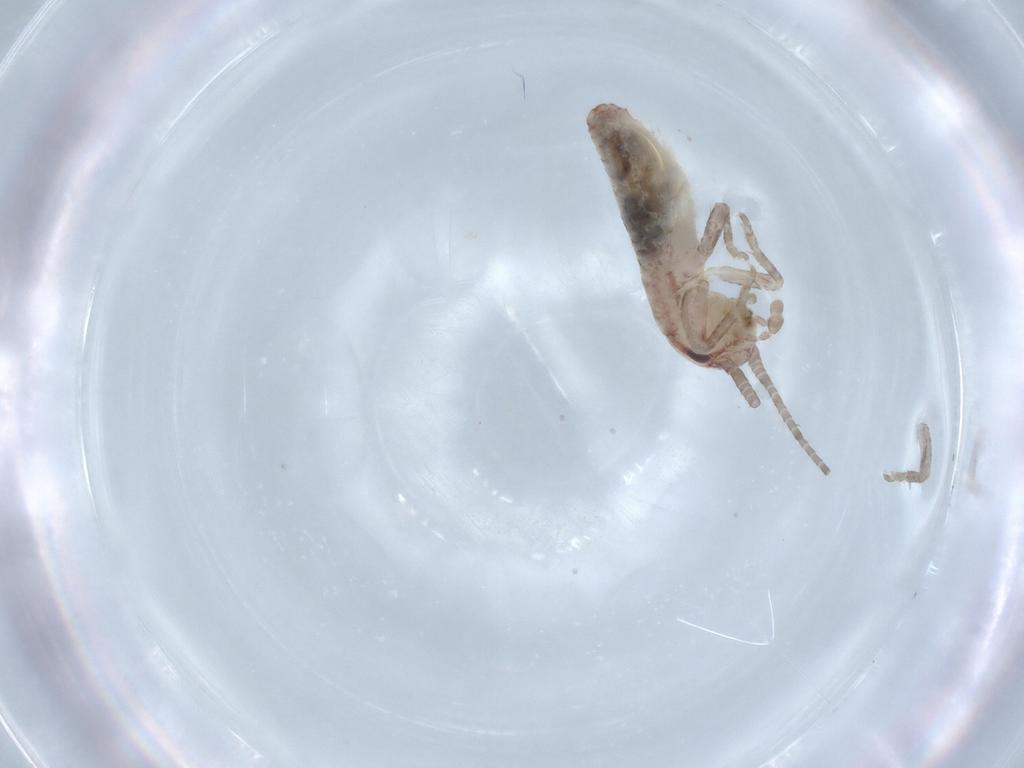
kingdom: Animalia
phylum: Arthropoda
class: Insecta
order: Orthoptera
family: Mogoplistidae
